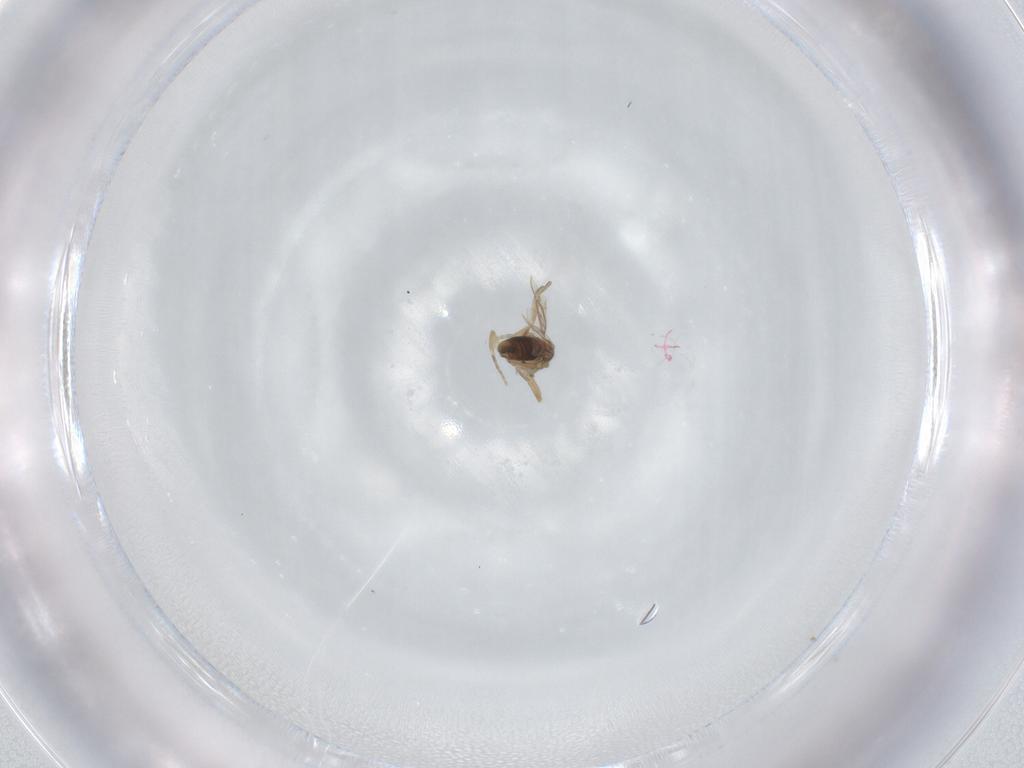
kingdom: Animalia
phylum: Arthropoda
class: Insecta
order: Diptera
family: Phoridae
